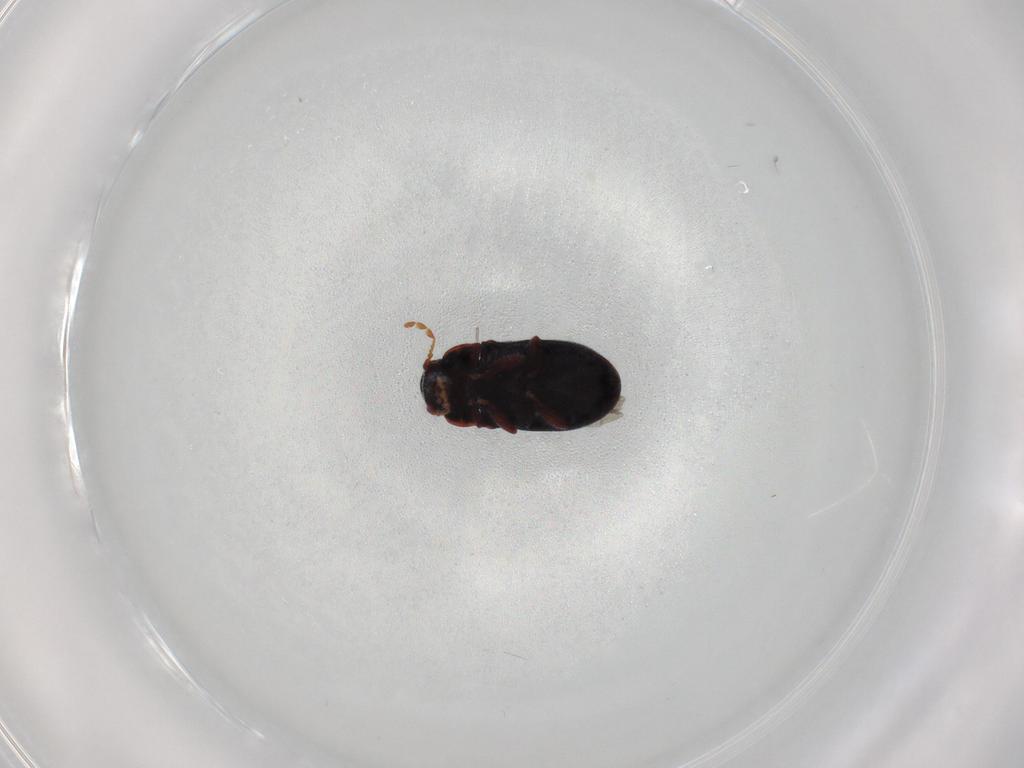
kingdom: Animalia
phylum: Arthropoda
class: Insecta
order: Coleoptera
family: Ptinidae
